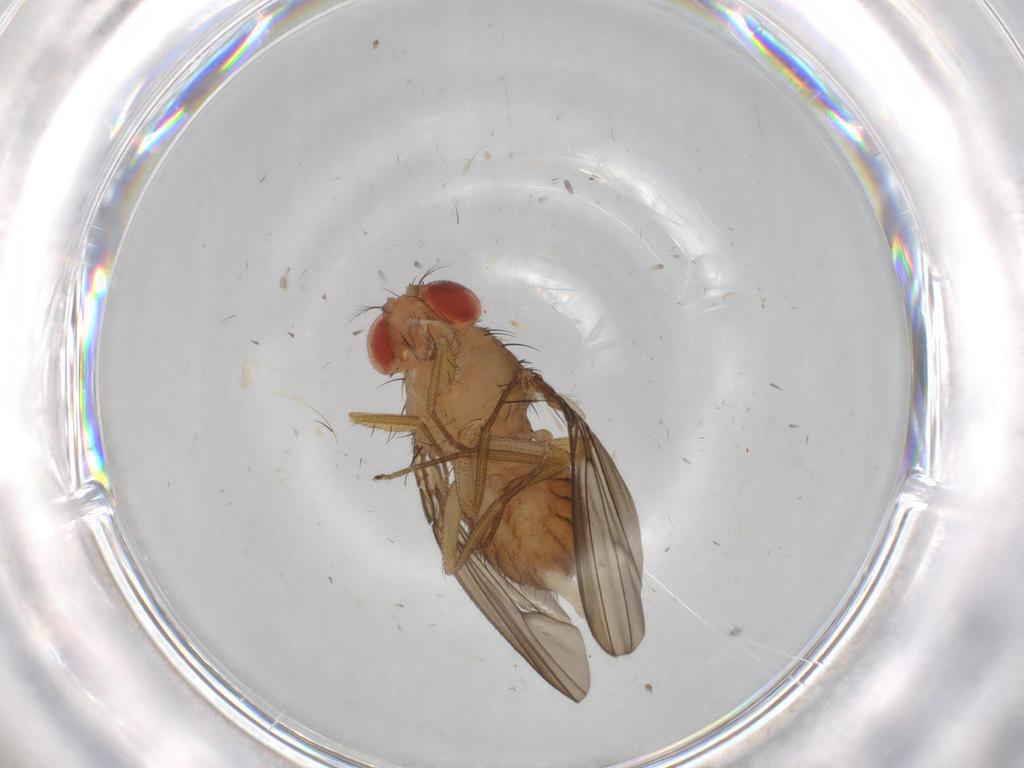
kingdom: Animalia
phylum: Arthropoda
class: Insecta
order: Diptera
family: Drosophilidae
